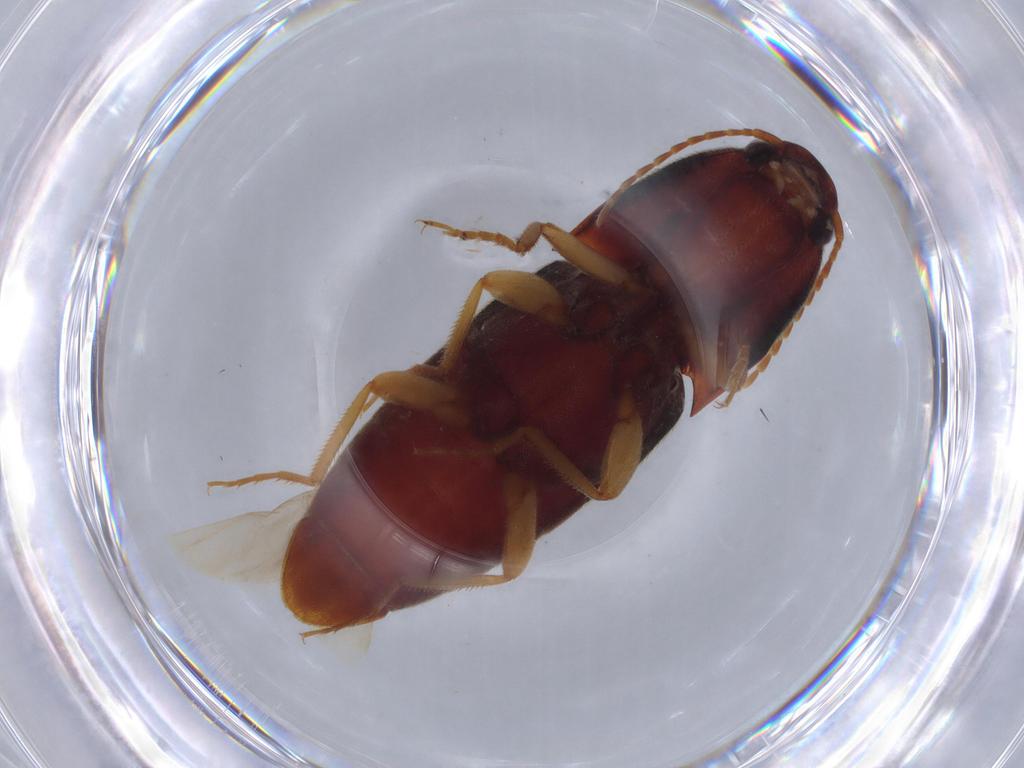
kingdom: Animalia
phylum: Arthropoda
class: Insecta
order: Coleoptera
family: Elateridae
